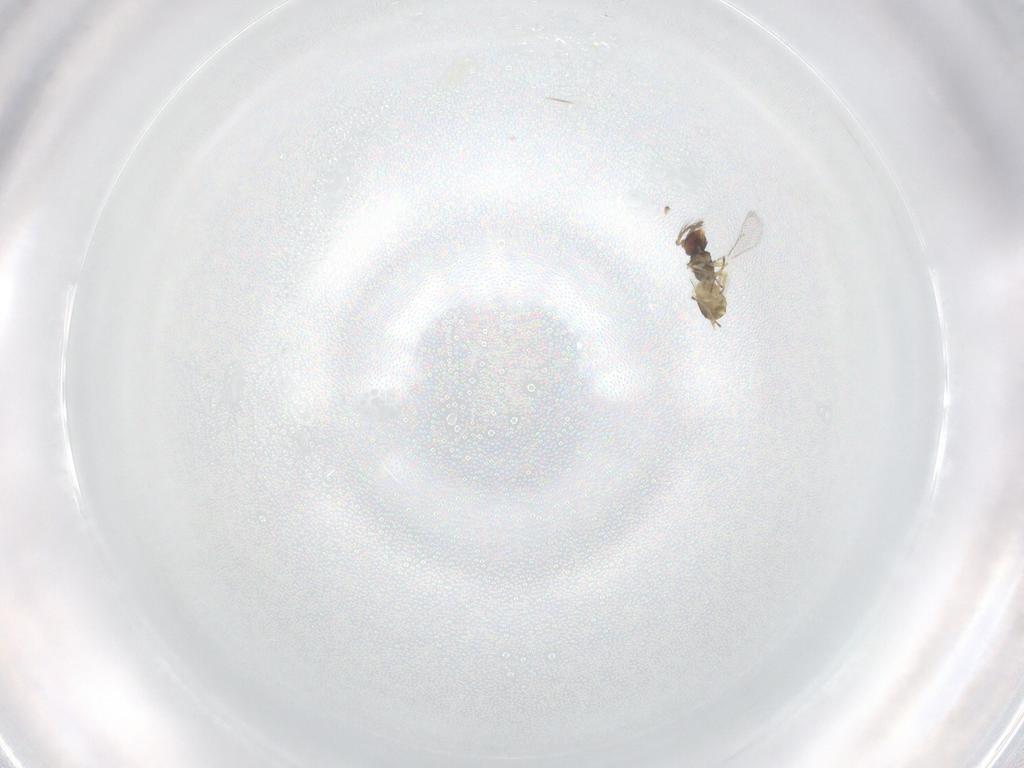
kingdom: Animalia
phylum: Arthropoda
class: Insecta
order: Hymenoptera
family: Eulophidae
